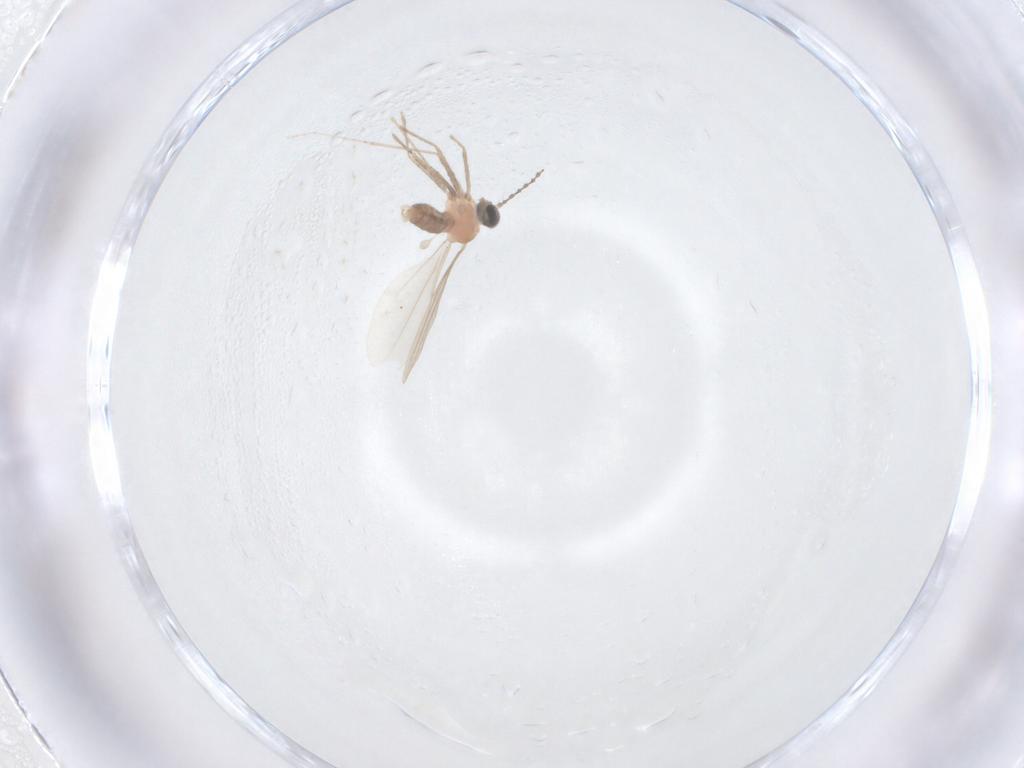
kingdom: Animalia
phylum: Arthropoda
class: Insecta
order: Diptera
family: Cecidomyiidae
